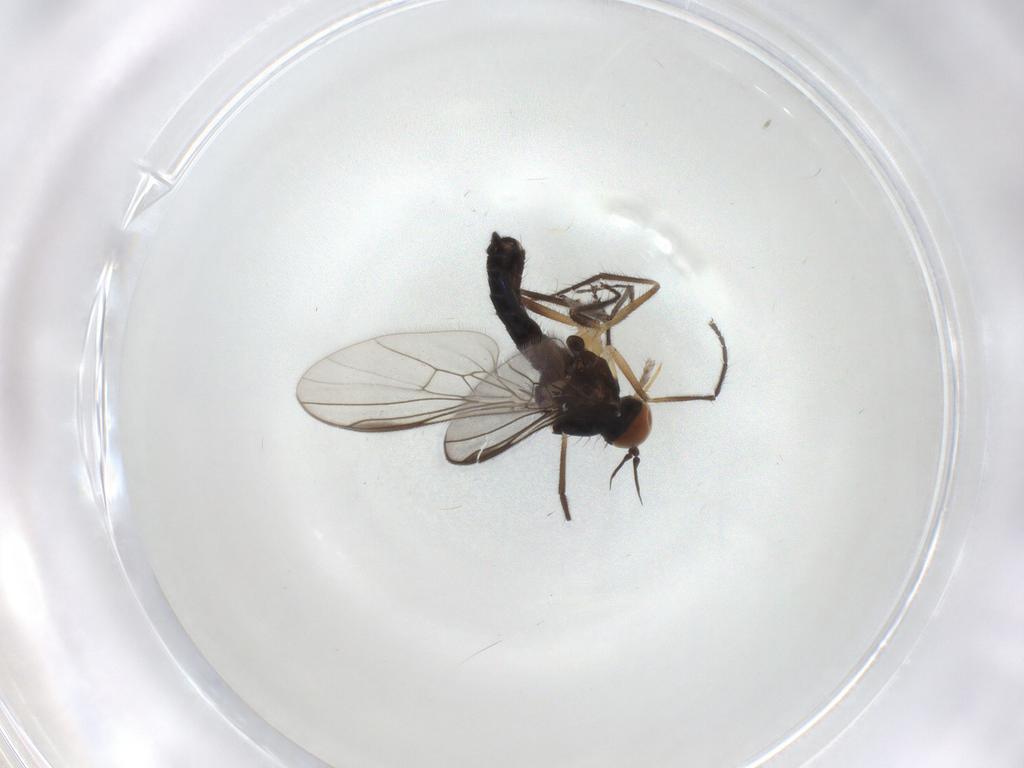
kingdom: Animalia
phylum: Arthropoda
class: Insecta
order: Diptera
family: Empididae
